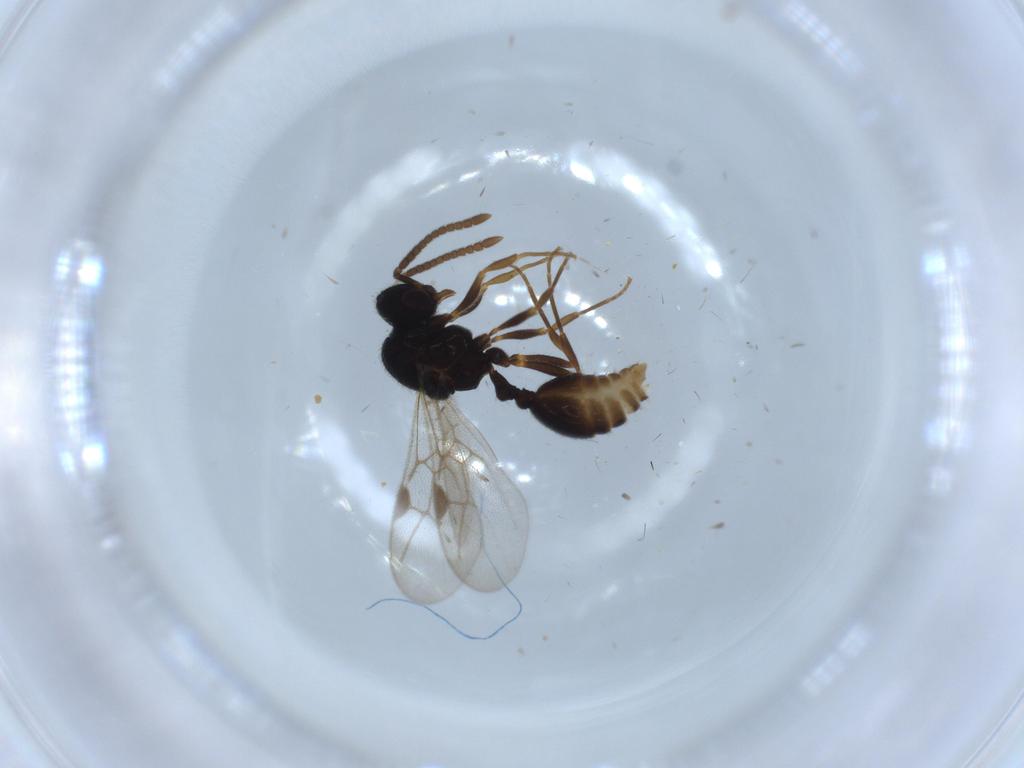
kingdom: Animalia
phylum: Arthropoda
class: Insecta
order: Hymenoptera
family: Formicidae
